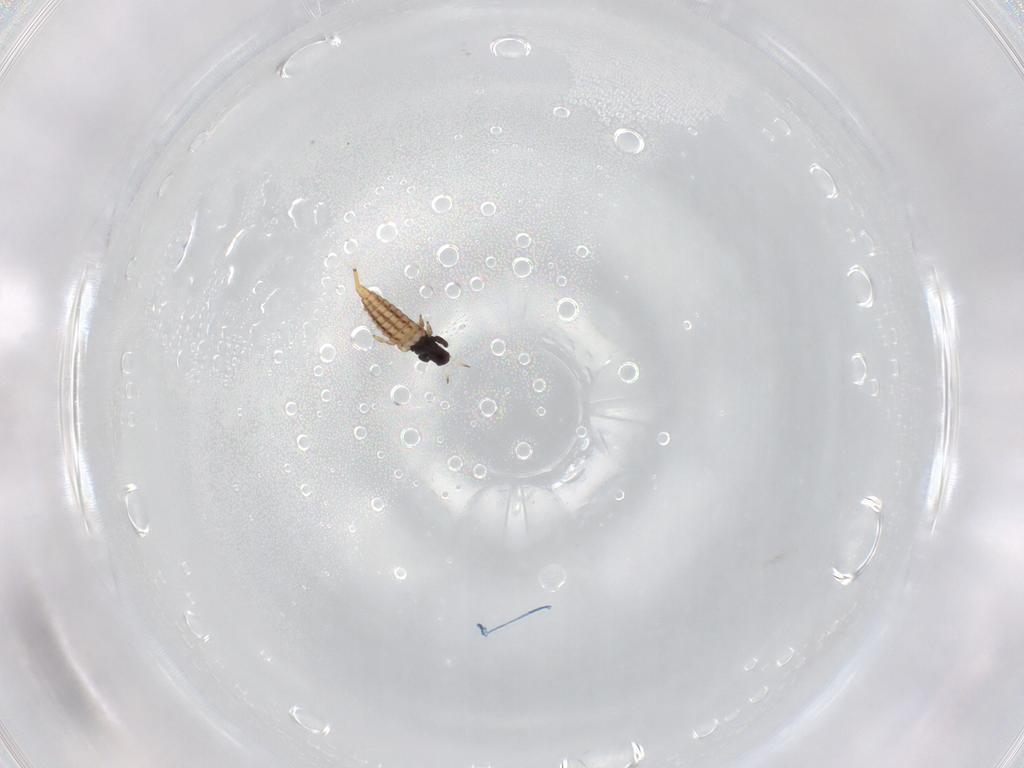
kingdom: Animalia
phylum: Arthropoda
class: Insecta
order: Thysanoptera
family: Phlaeothripidae
